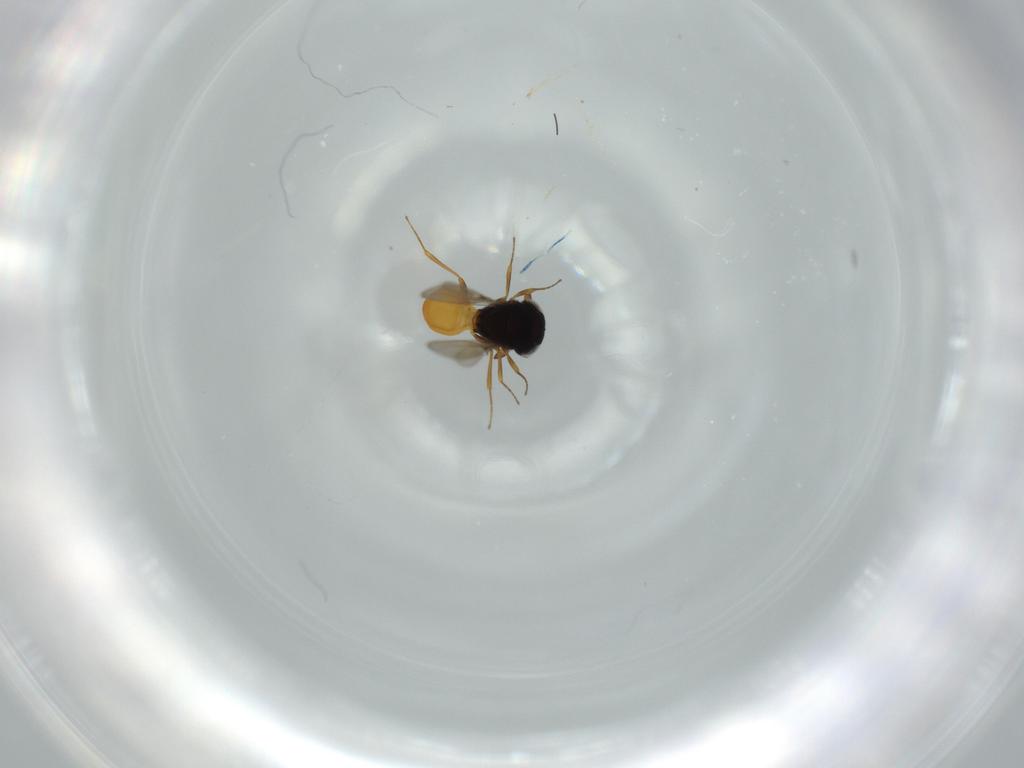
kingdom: Animalia
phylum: Arthropoda
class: Insecta
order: Hymenoptera
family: Scelionidae
